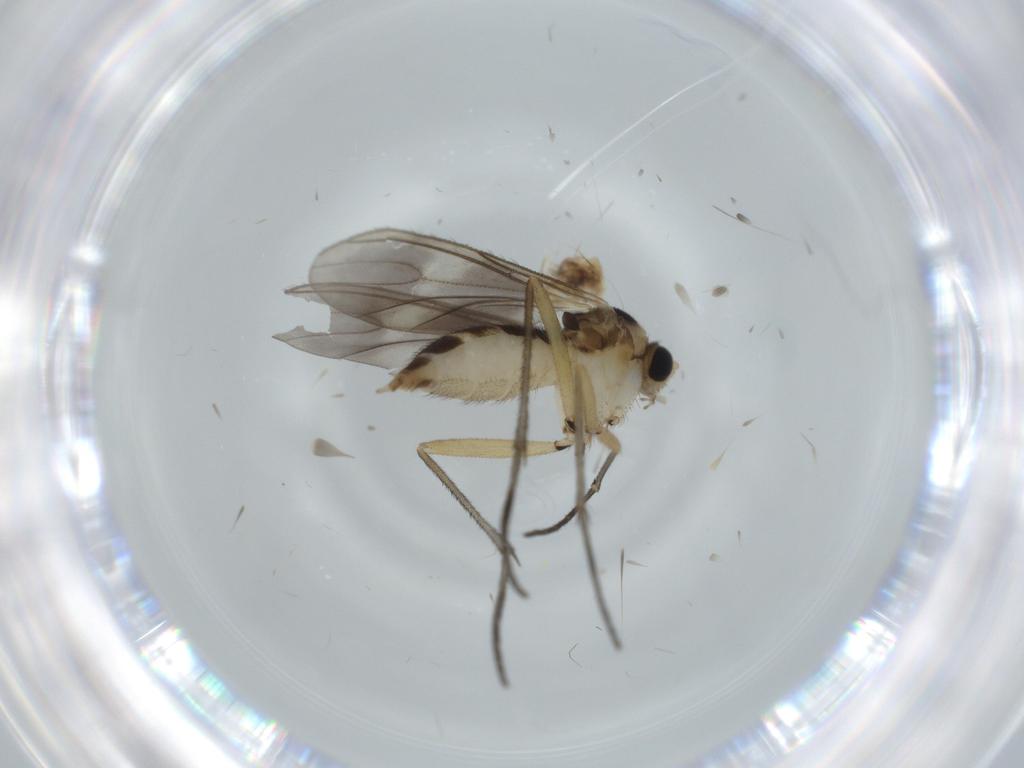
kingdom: Animalia
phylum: Arthropoda
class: Insecta
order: Diptera
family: Sciaridae
